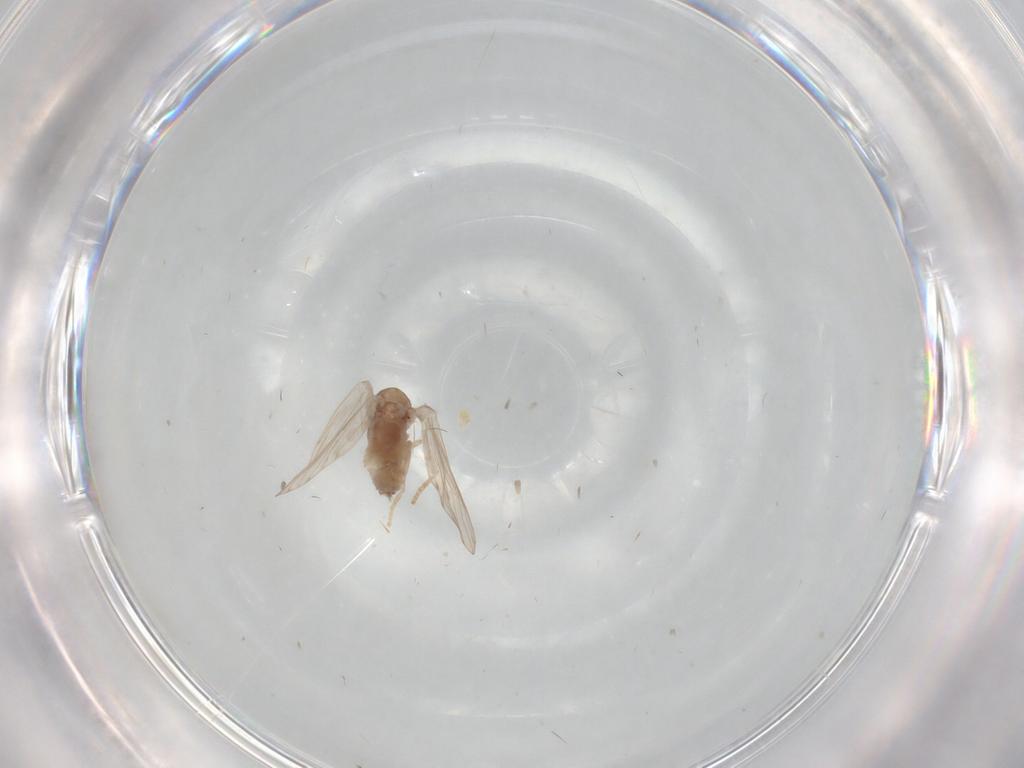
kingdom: Animalia
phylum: Arthropoda
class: Insecta
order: Diptera
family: Psychodidae
